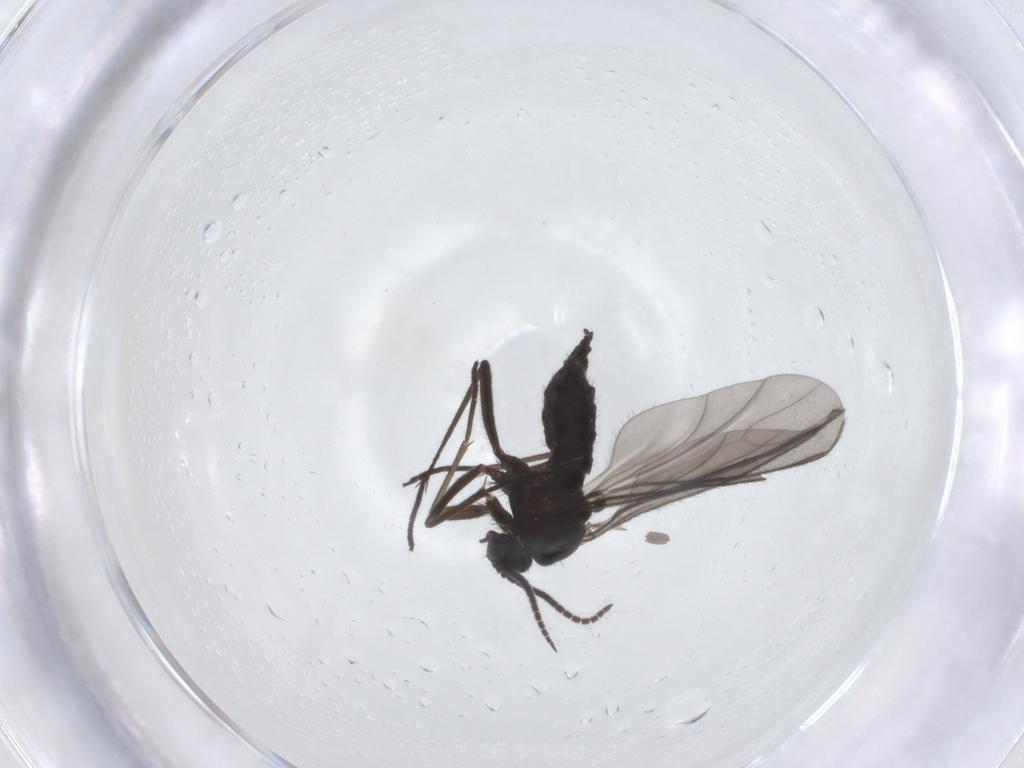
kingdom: Animalia
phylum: Arthropoda
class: Insecta
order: Diptera
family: Sciaridae
